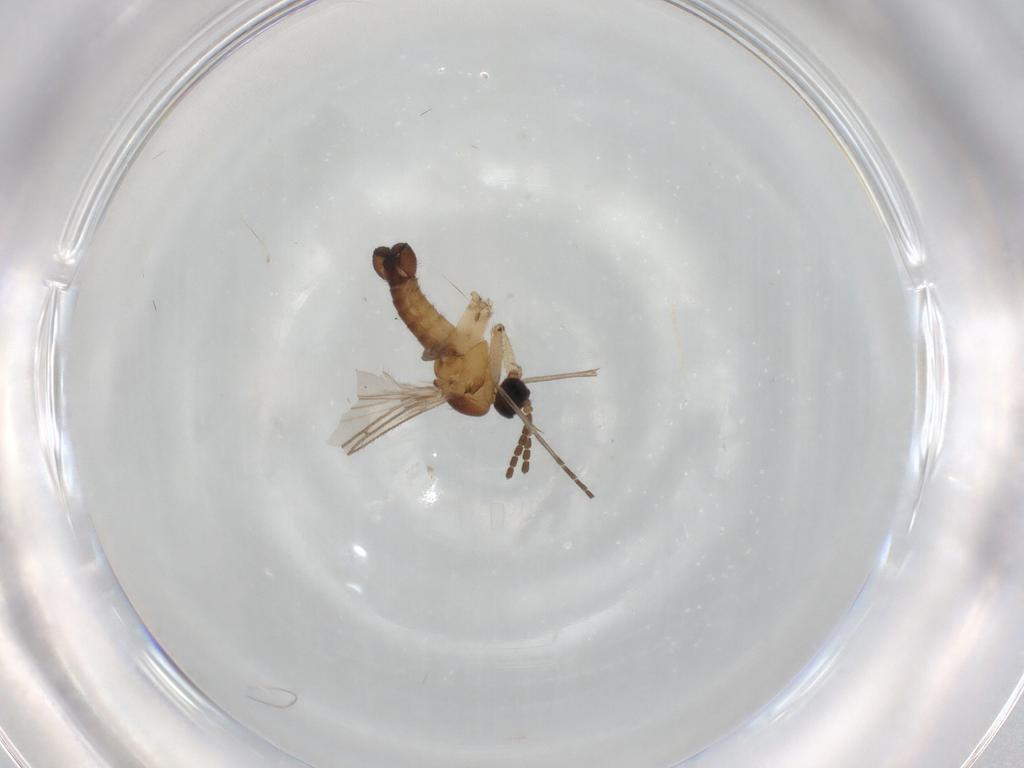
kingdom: Animalia
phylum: Arthropoda
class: Insecta
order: Diptera
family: Sciaridae
